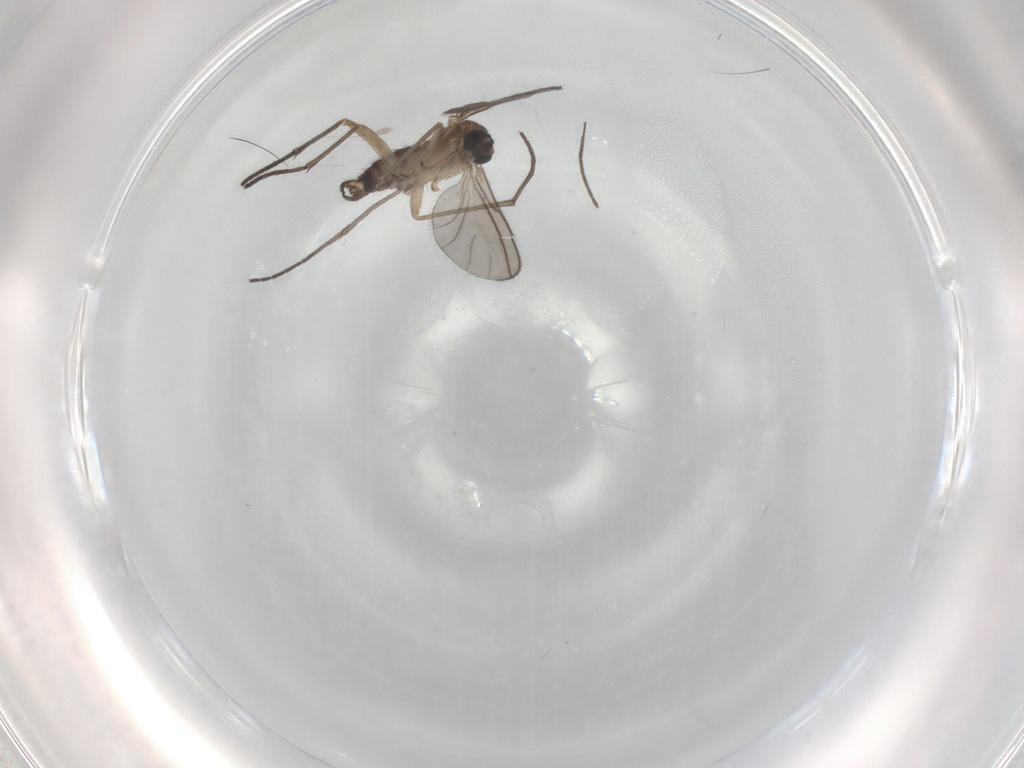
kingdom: Animalia
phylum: Arthropoda
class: Insecta
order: Diptera
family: Sciaridae
